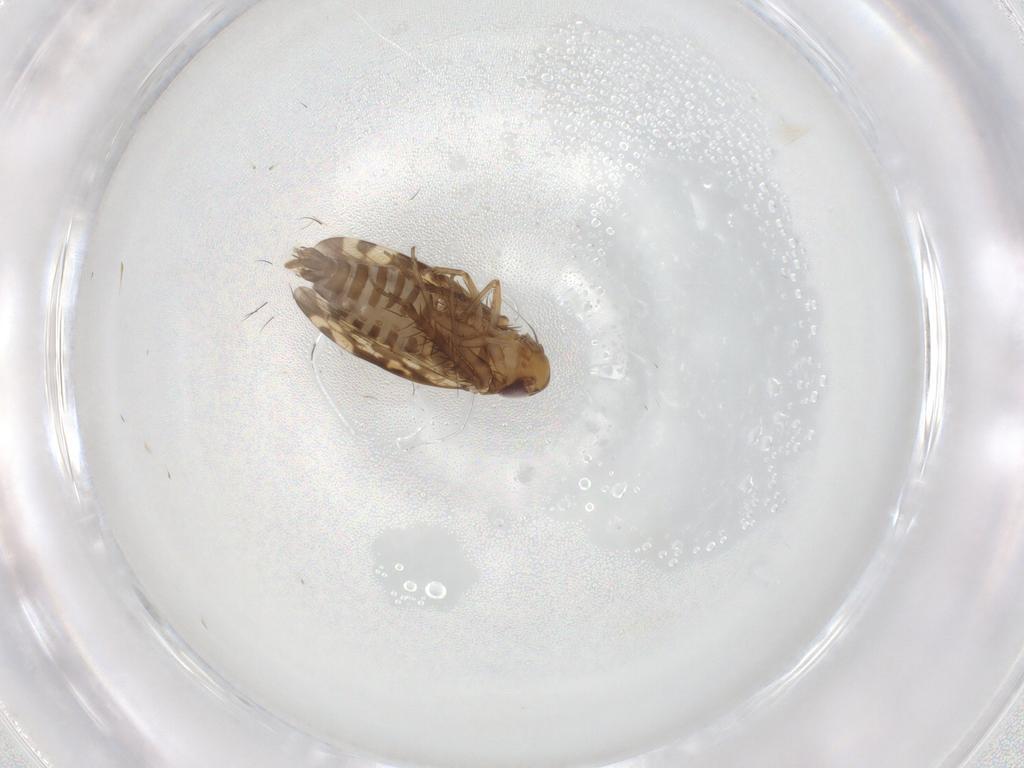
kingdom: Animalia
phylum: Arthropoda
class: Insecta
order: Hemiptera
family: Cicadellidae
